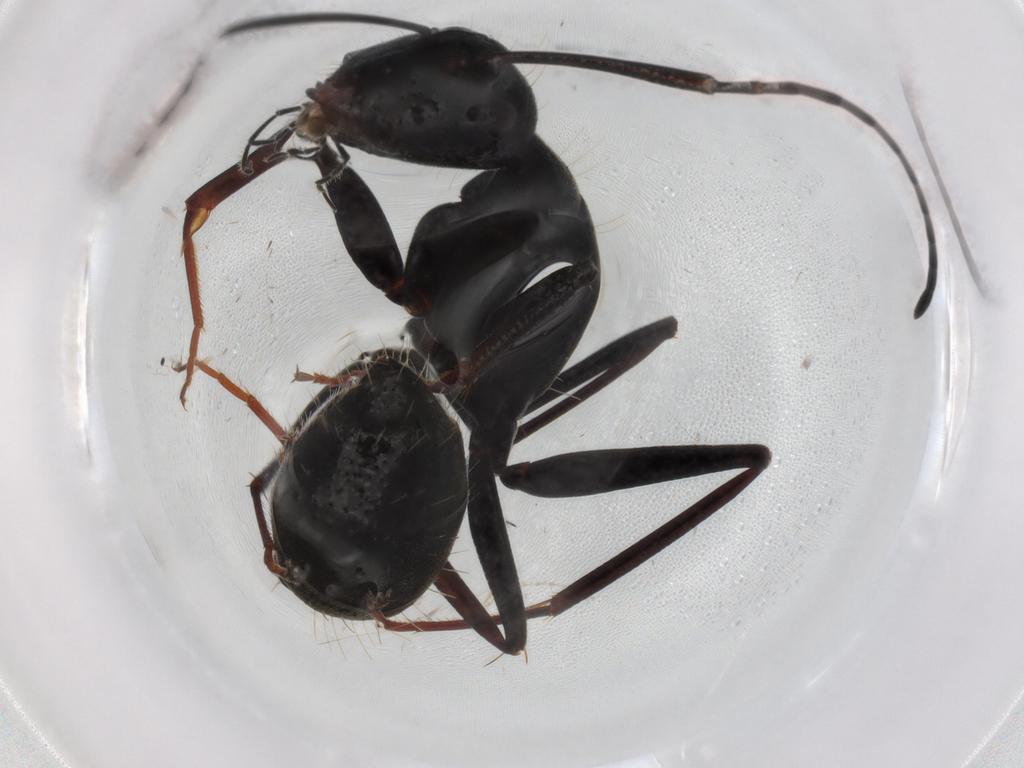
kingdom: Animalia
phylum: Arthropoda
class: Insecta
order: Hymenoptera
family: Formicidae
